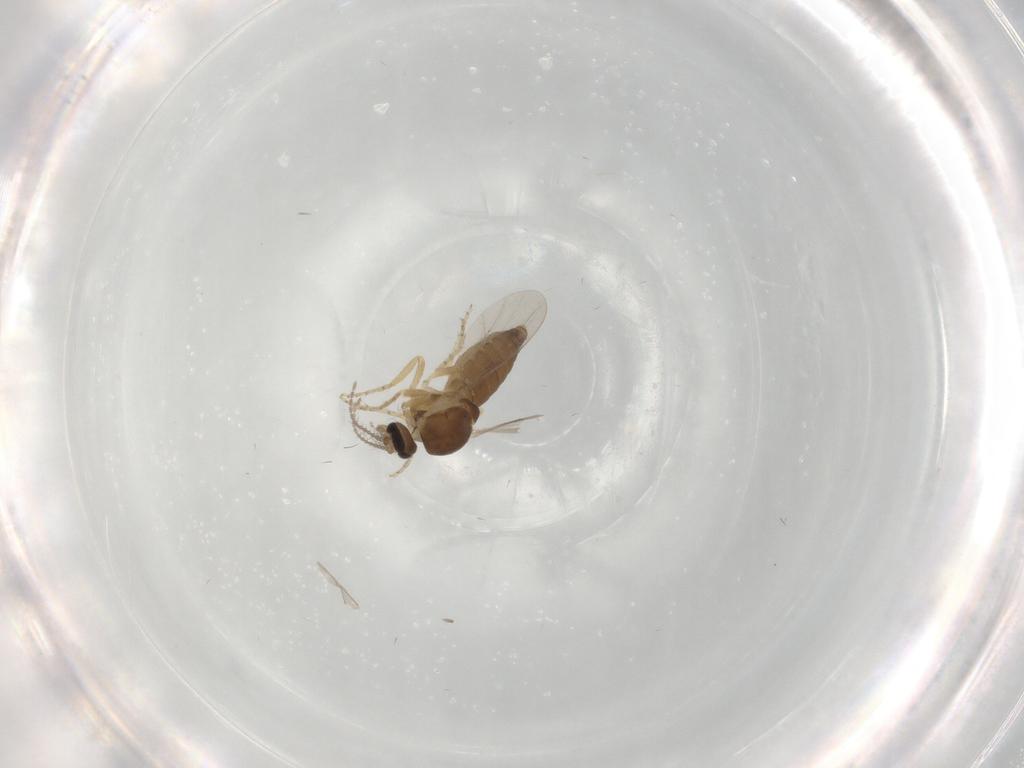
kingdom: Animalia
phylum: Arthropoda
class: Insecta
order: Diptera
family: Ceratopogonidae
